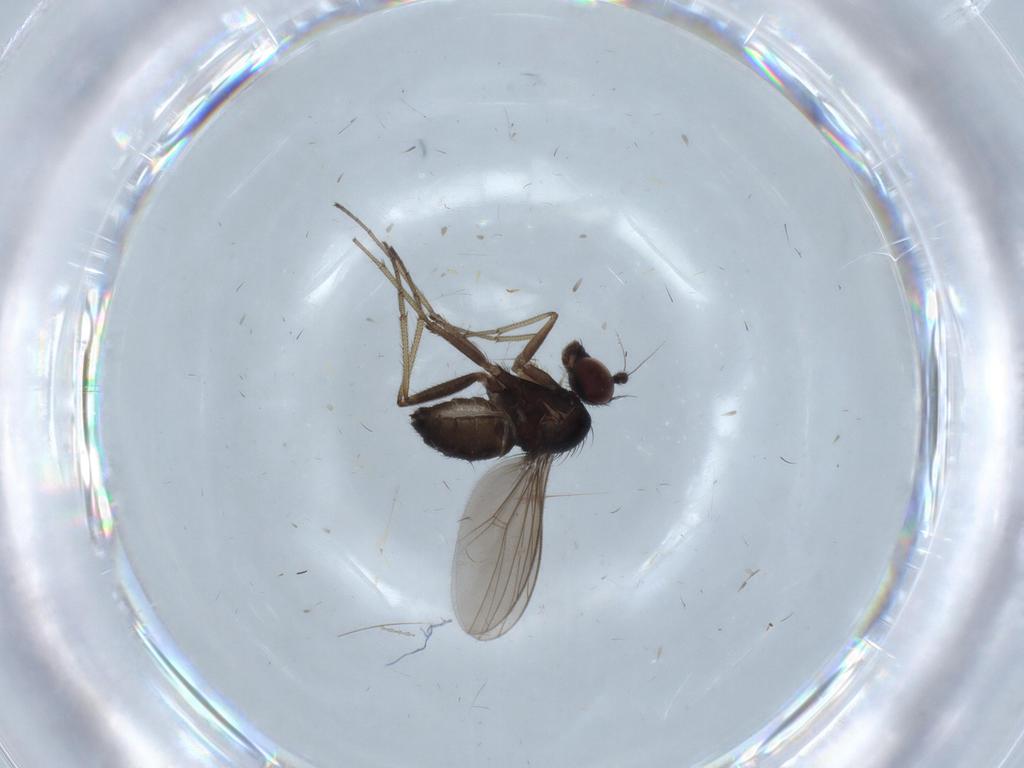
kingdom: Animalia
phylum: Arthropoda
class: Insecta
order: Diptera
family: Dolichopodidae
